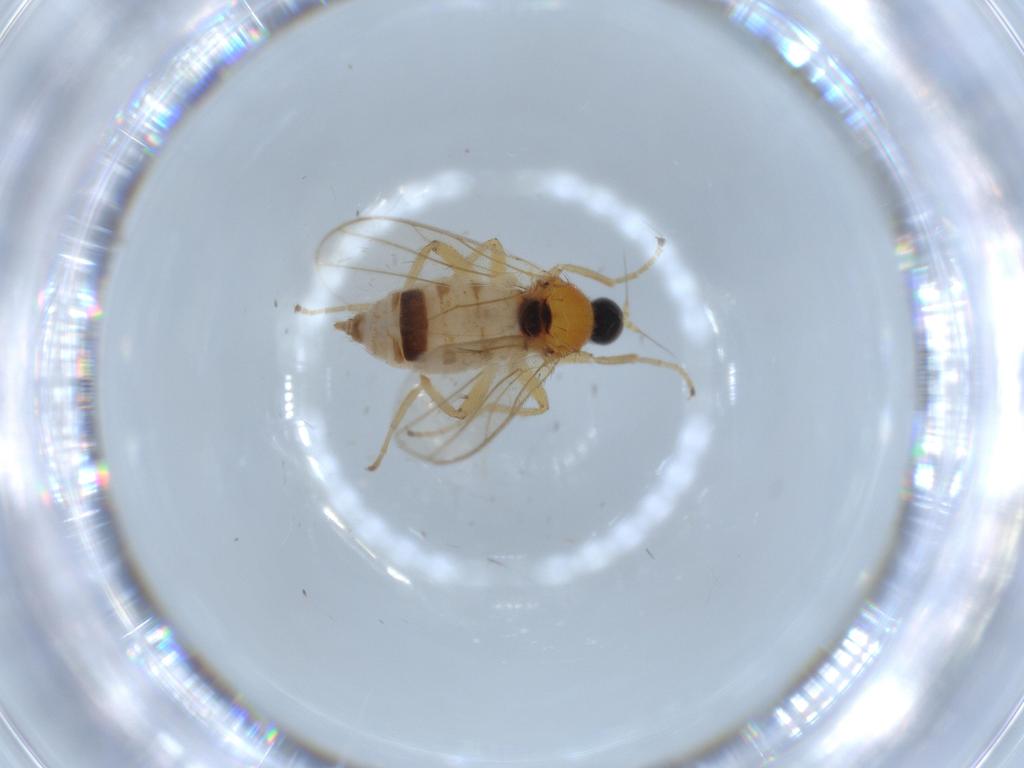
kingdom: Animalia
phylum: Arthropoda
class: Insecta
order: Diptera
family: Hybotidae
